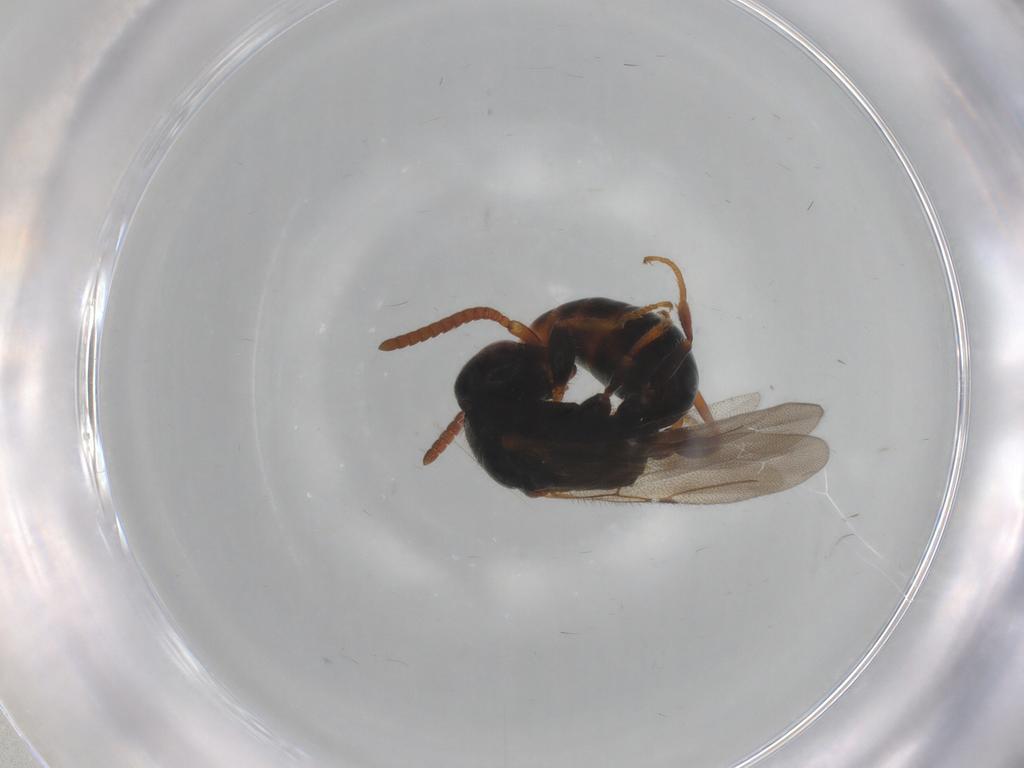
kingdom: Animalia
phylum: Arthropoda
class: Insecta
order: Hymenoptera
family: Bethylidae
